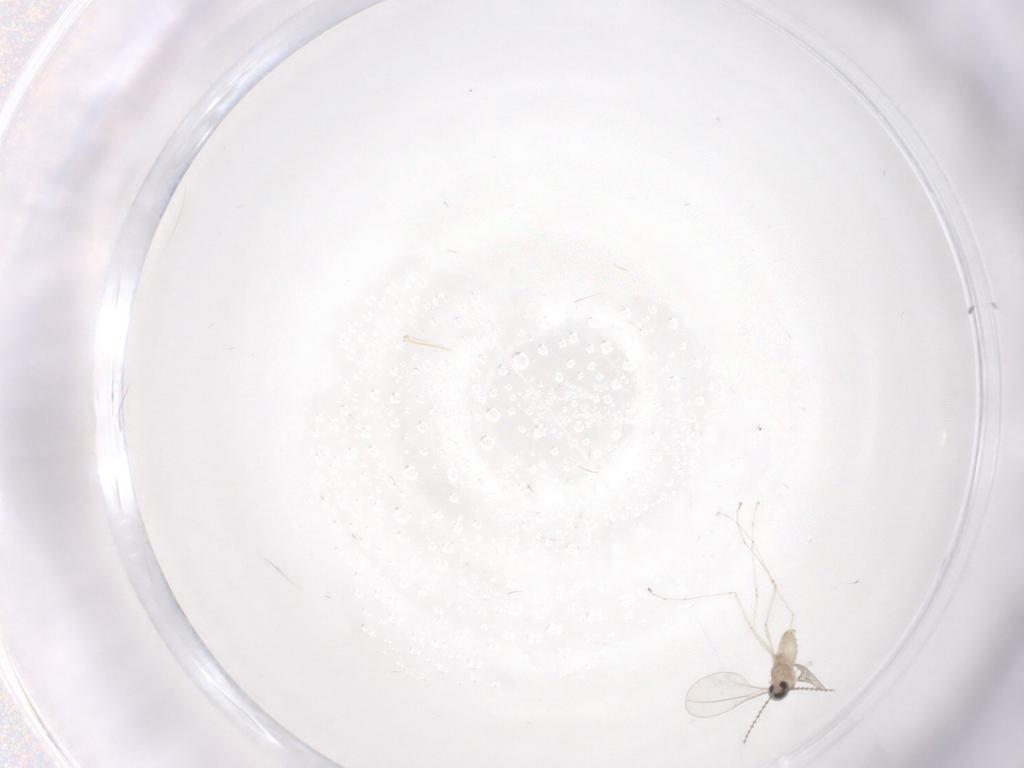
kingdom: Animalia
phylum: Arthropoda
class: Insecta
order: Diptera
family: Cecidomyiidae
